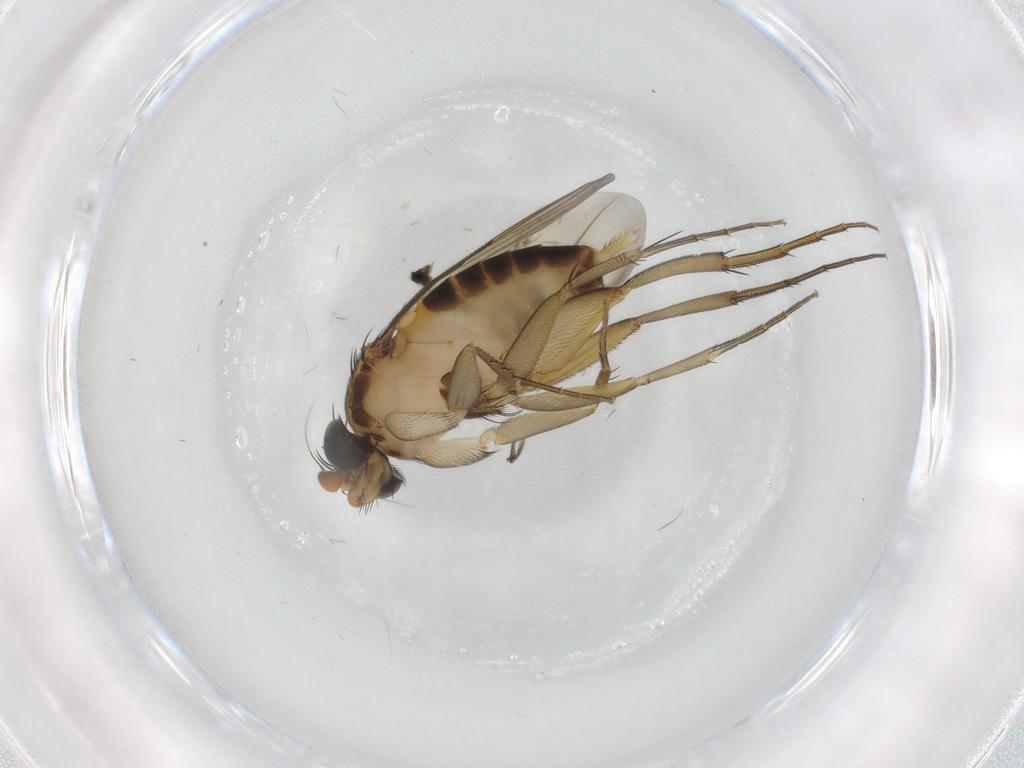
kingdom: Animalia
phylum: Arthropoda
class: Insecta
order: Diptera
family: Phoridae
